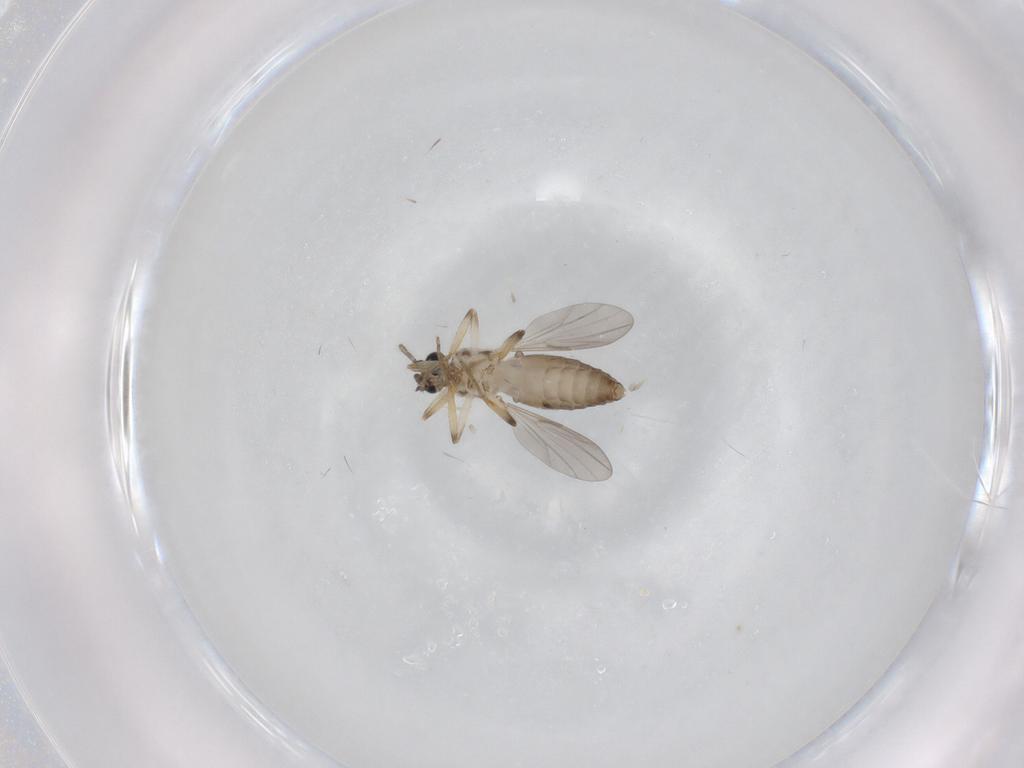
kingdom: Animalia
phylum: Arthropoda
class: Insecta
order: Diptera
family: Ceratopogonidae
